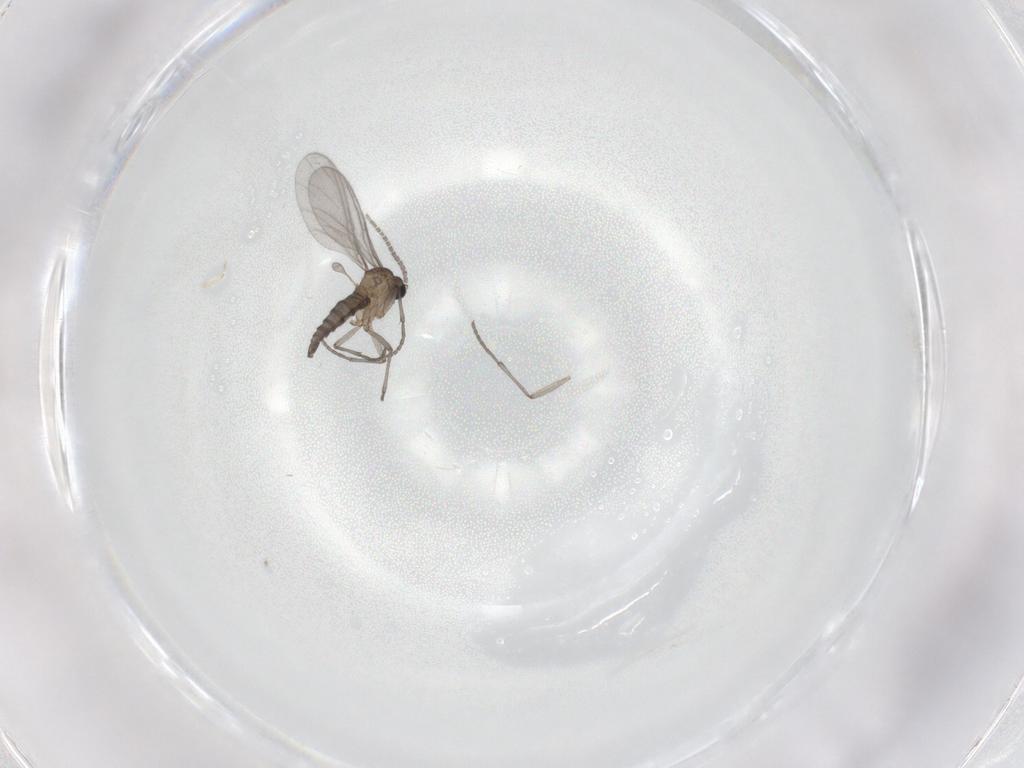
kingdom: Animalia
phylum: Arthropoda
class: Insecta
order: Diptera
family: Sciaridae
